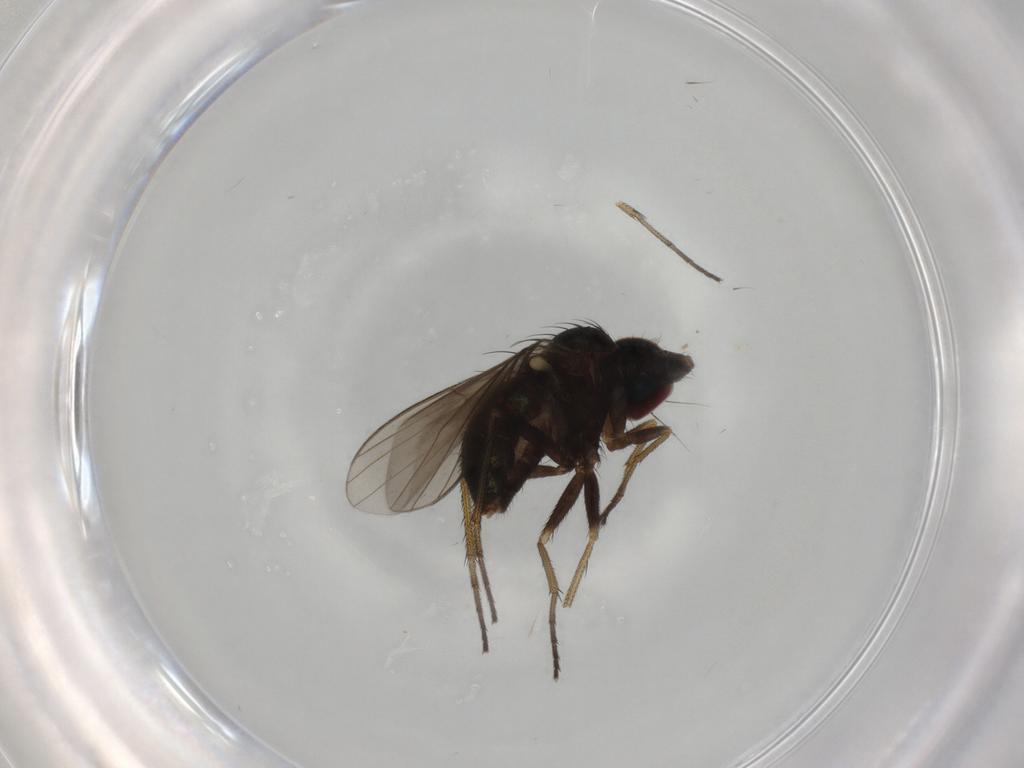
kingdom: Animalia
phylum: Arthropoda
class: Insecta
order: Diptera
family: Dolichopodidae
